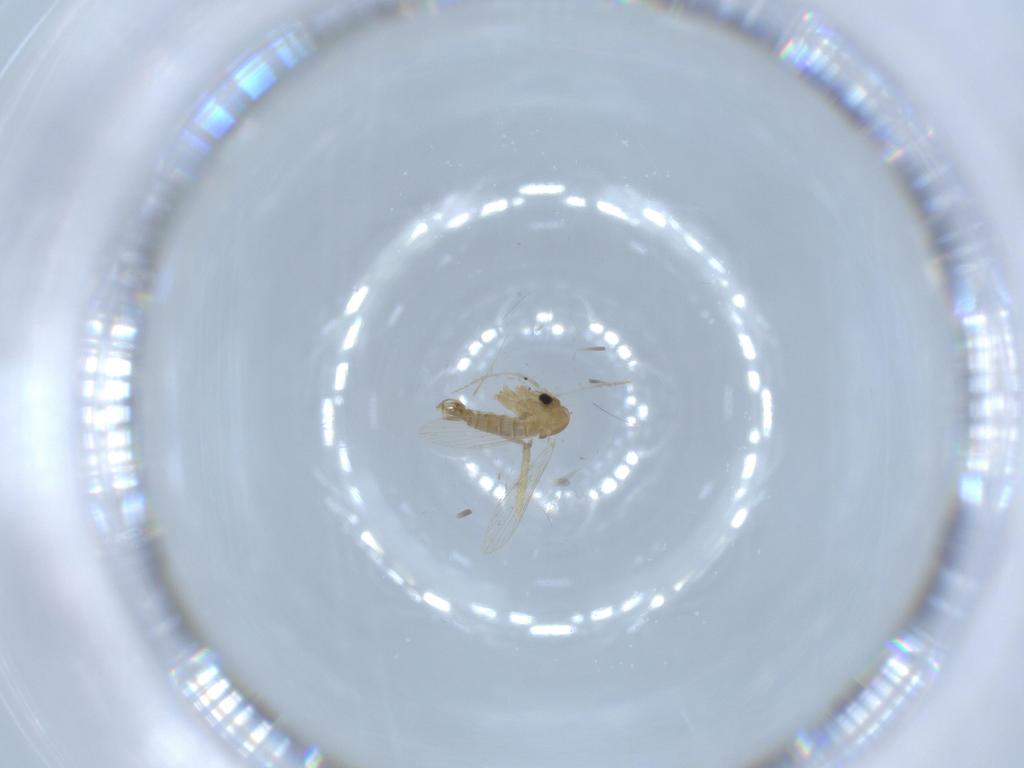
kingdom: Animalia
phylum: Arthropoda
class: Insecta
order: Diptera
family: Psychodidae
